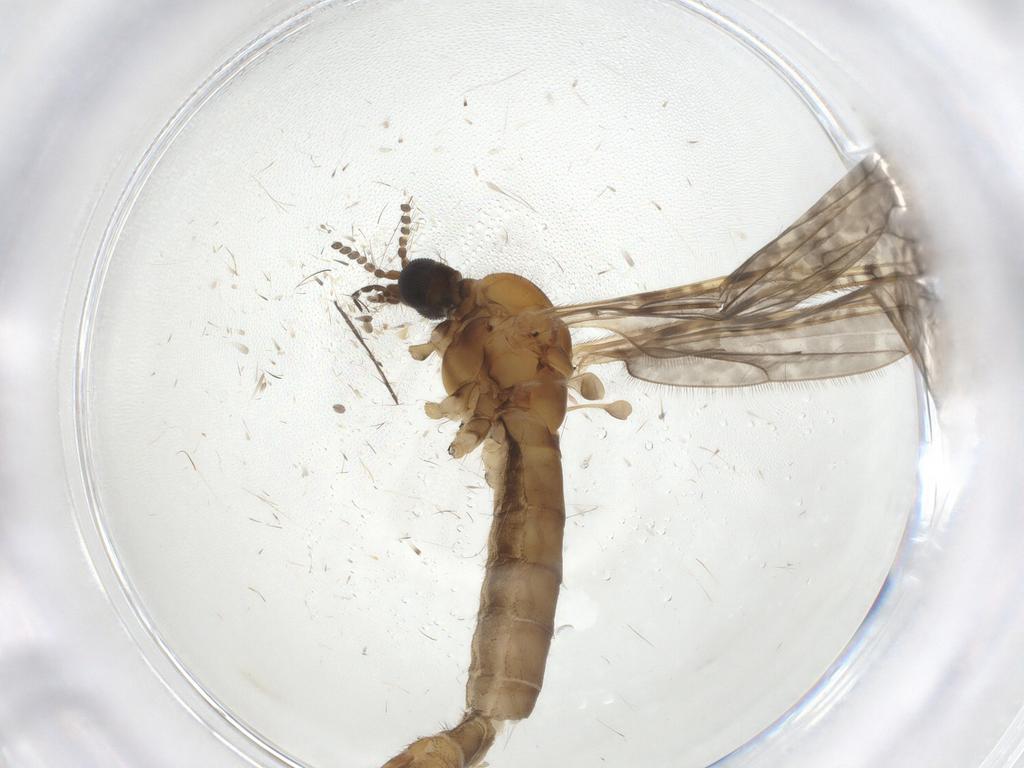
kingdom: Animalia
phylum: Arthropoda
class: Insecta
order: Diptera
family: Limoniidae
